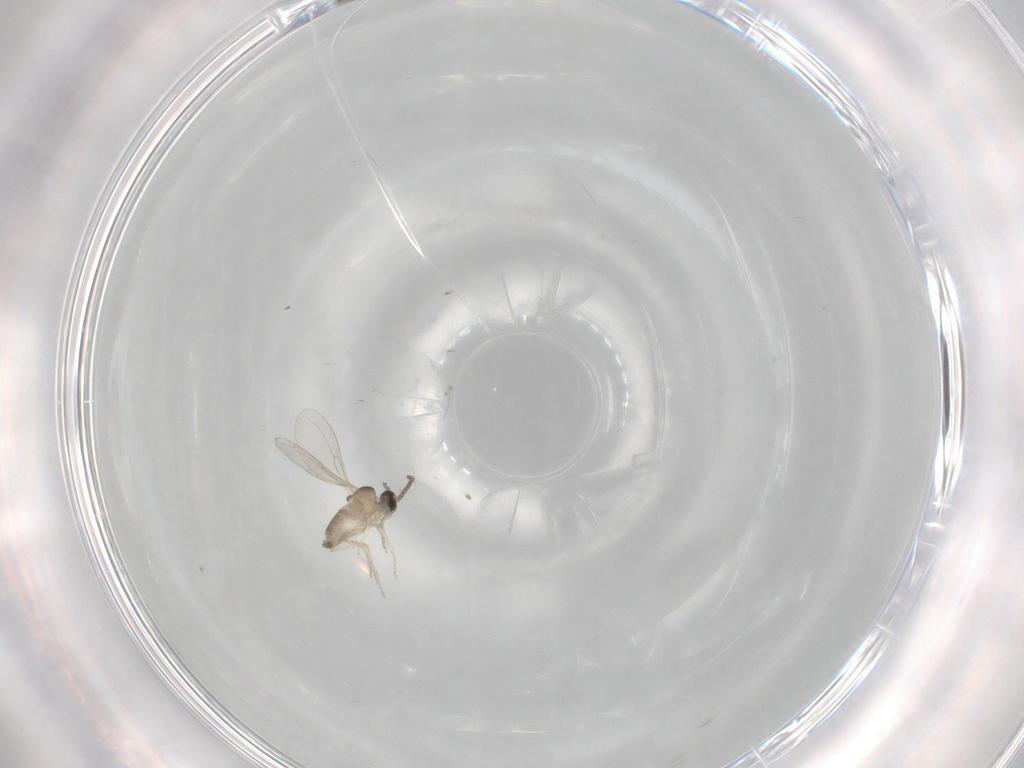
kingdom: Animalia
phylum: Arthropoda
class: Insecta
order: Diptera
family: Cecidomyiidae
